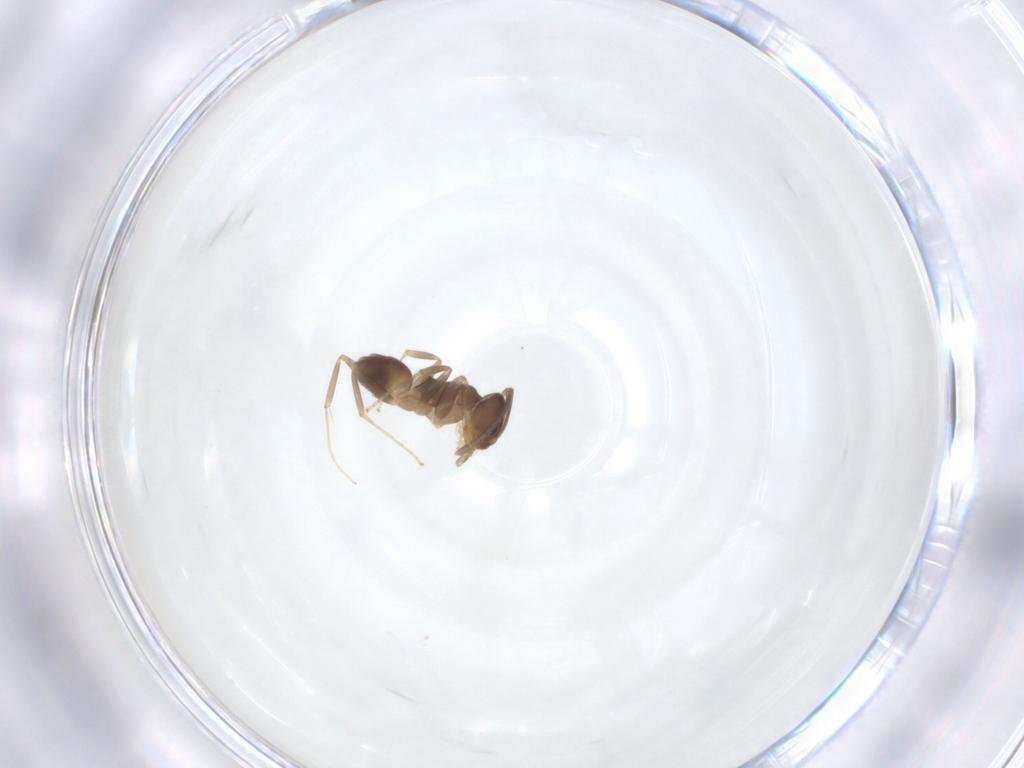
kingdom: Animalia
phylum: Arthropoda
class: Insecta
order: Hymenoptera
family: Formicidae
